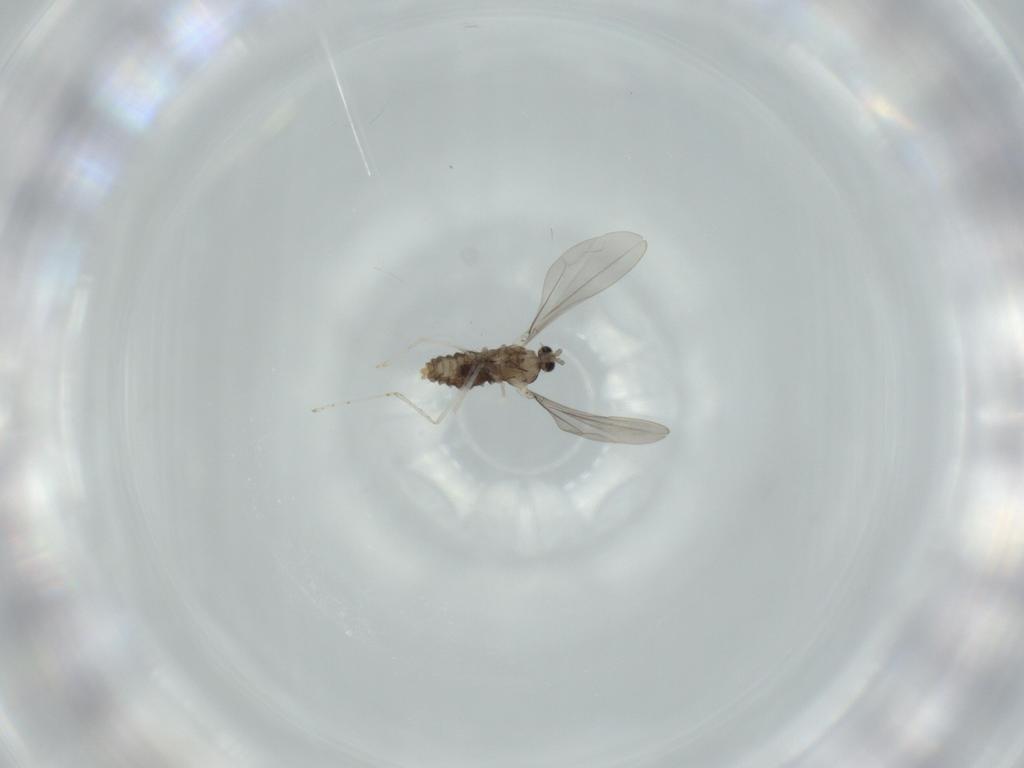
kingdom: Animalia
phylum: Arthropoda
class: Insecta
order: Diptera
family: Cecidomyiidae
